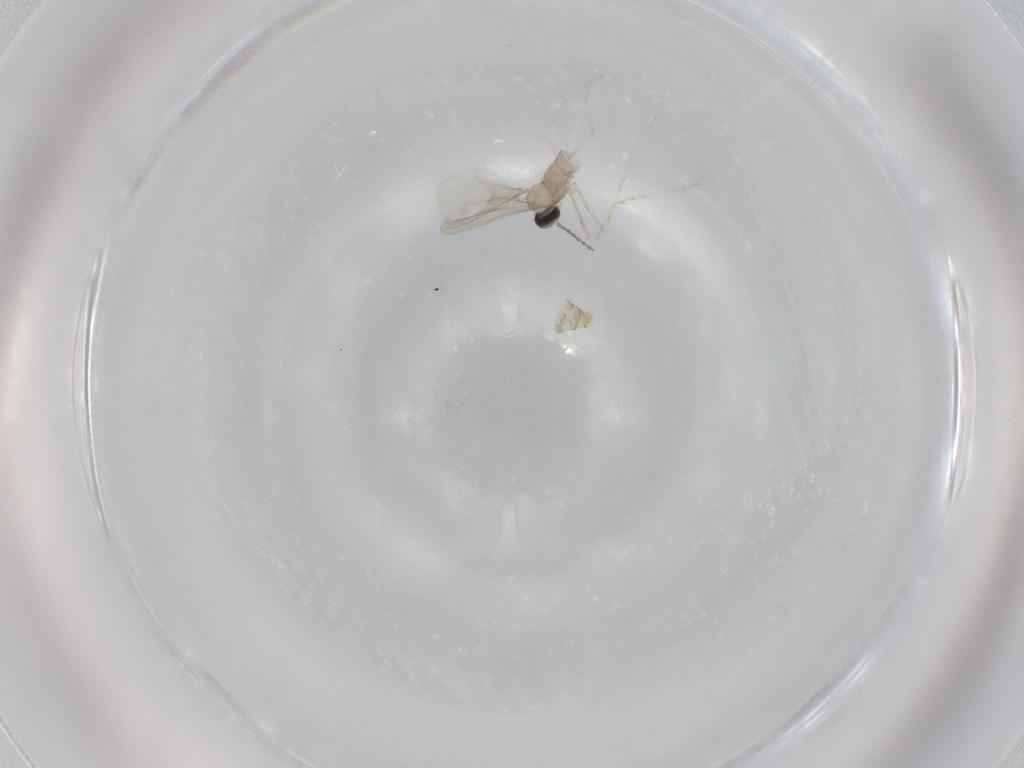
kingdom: Animalia
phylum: Arthropoda
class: Insecta
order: Diptera
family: Cecidomyiidae
